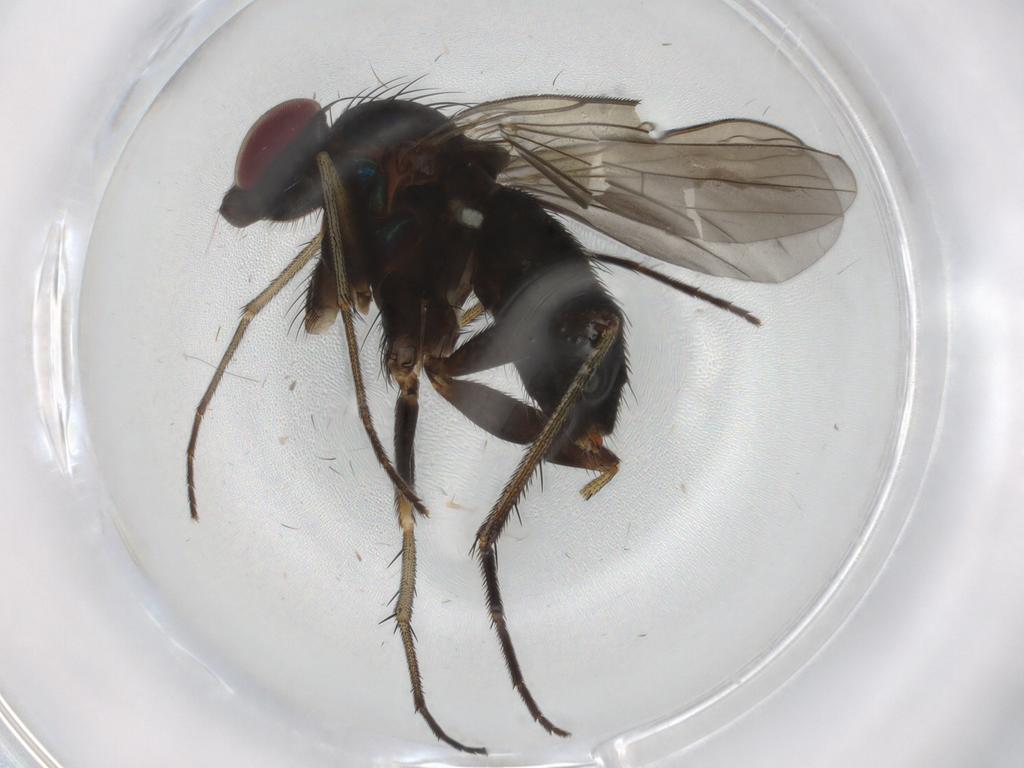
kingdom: Animalia
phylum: Arthropoda
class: Insecta
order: Diptera
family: Dolichopodidae
